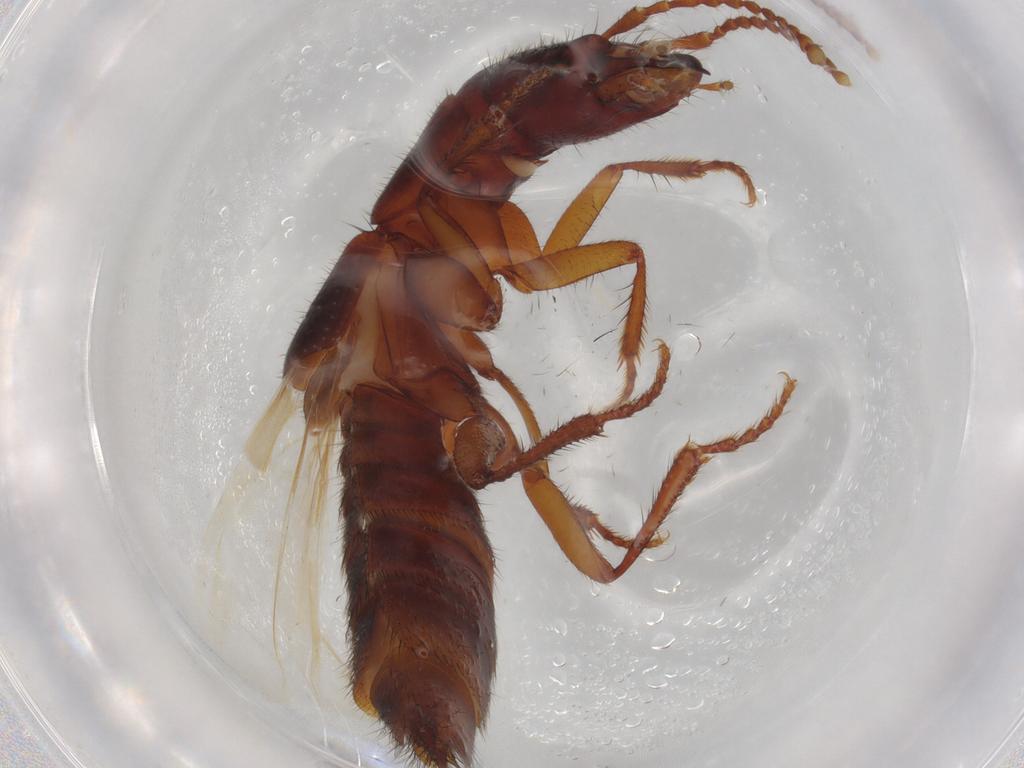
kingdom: Animalia
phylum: Arthropoda
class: Insecta
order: Coleoptera
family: Staphylinidae
